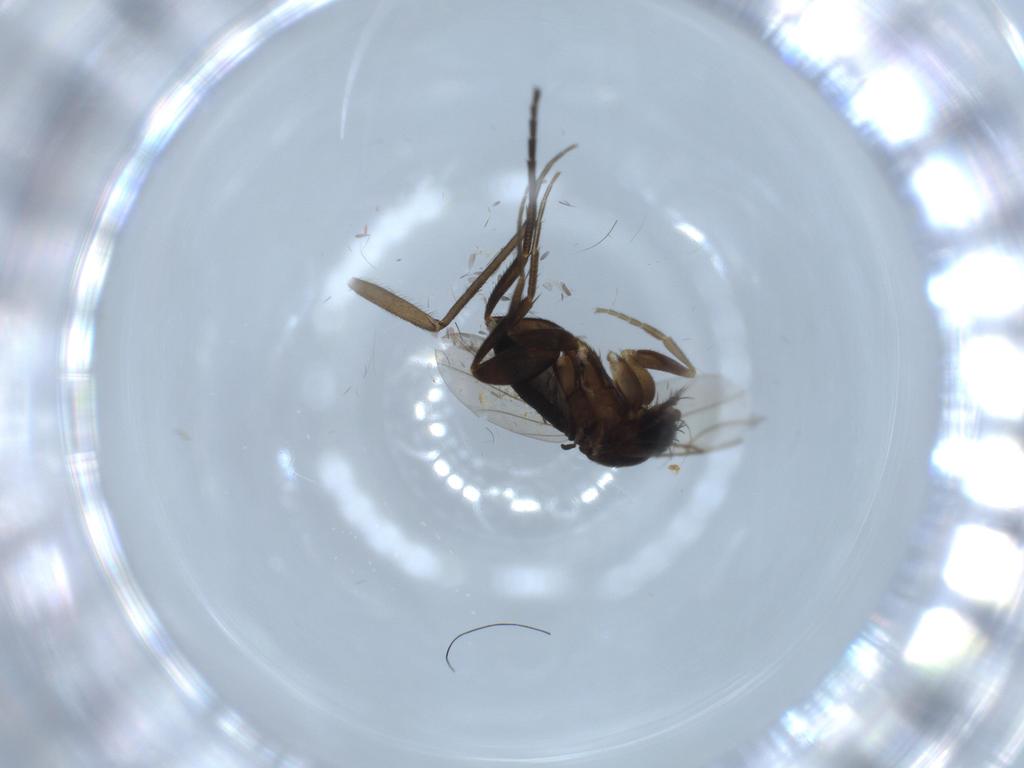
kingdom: Animalia
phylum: Arthropoda
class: Insecta
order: Diptera
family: Phoridae
